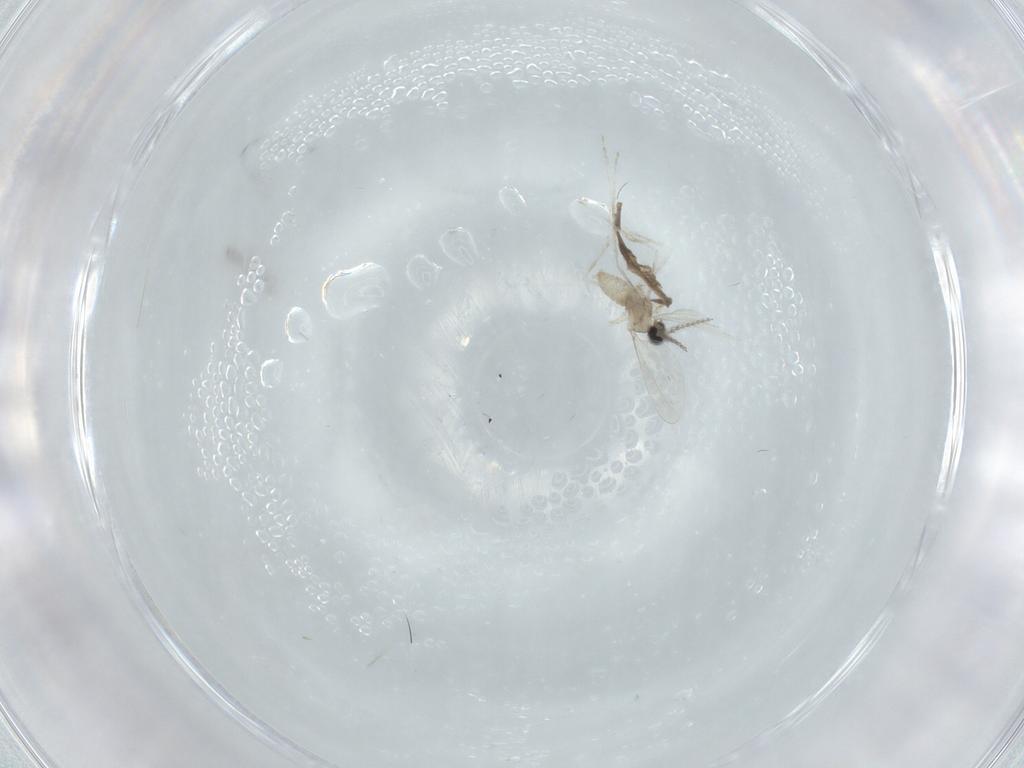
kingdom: Animalia
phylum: Arthropoda
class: Insecta
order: Diptera
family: Cecidomyiidae
